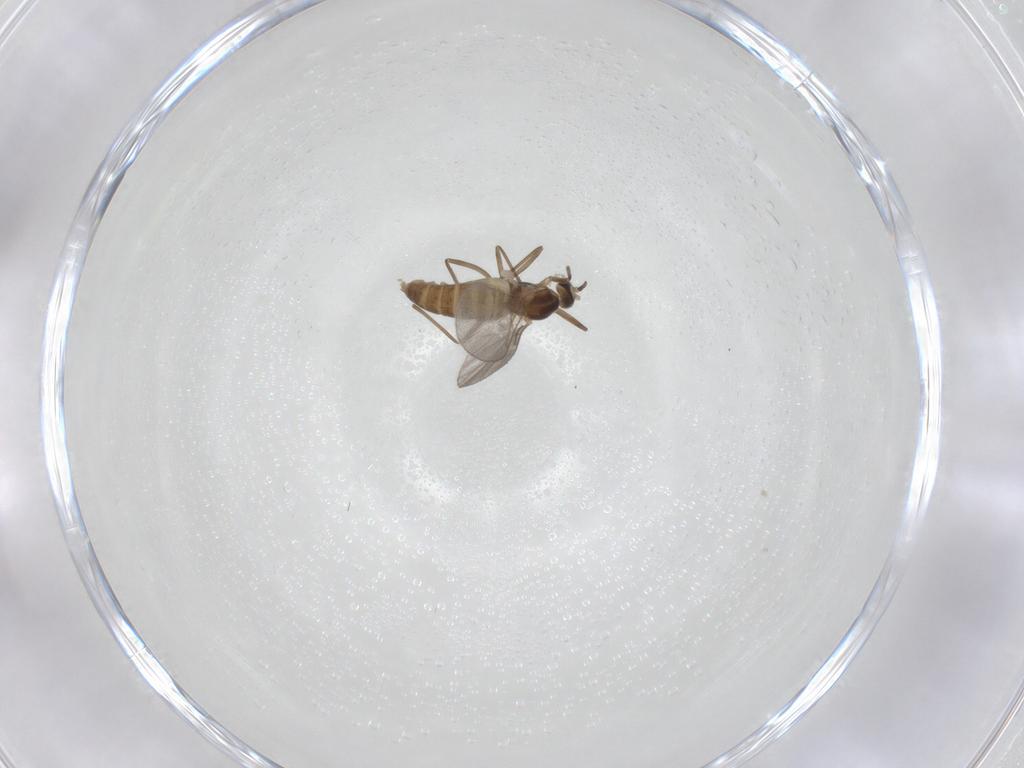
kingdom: Animalia
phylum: Arthropoda
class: Insecta
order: Diptera
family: Cecidomyiidae
